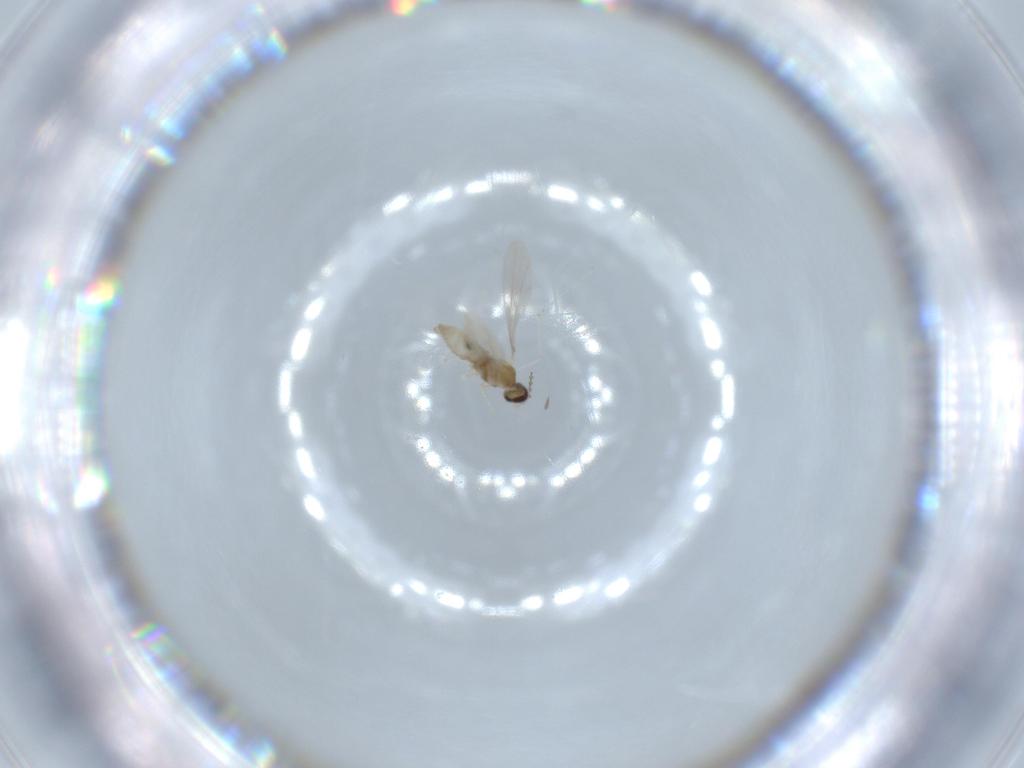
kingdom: Animalia
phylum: Arthropoda
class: Insecta
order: Diptera
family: Cecidomyiidae
